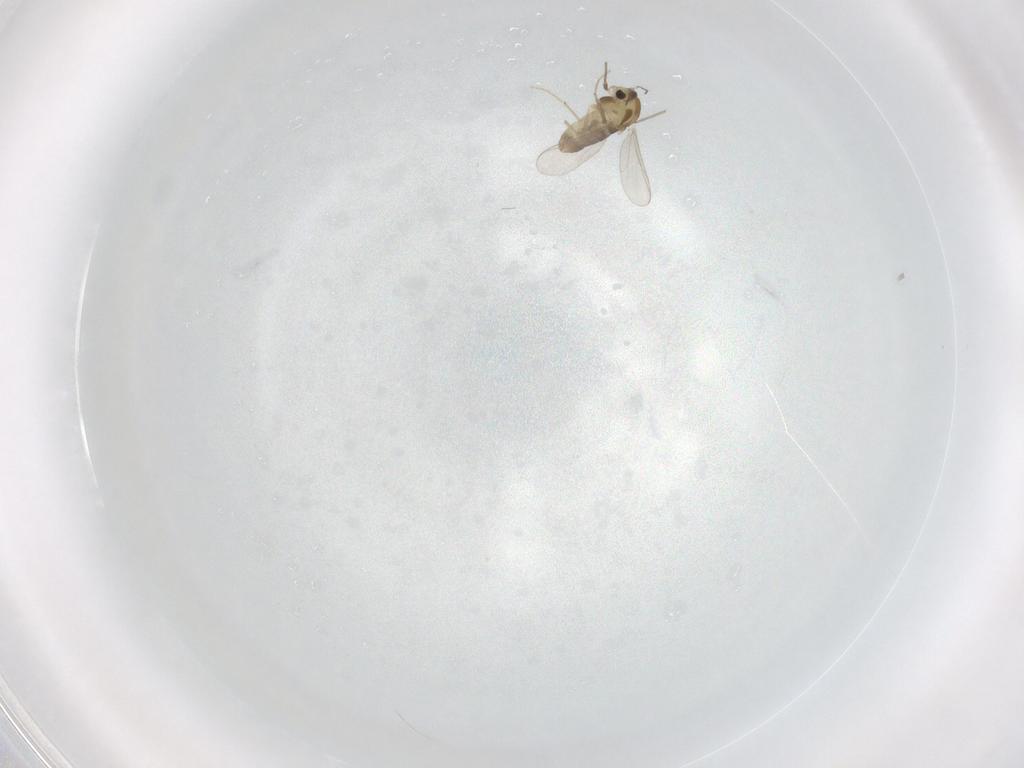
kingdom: Animalia
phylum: Arthropoda
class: Insecta
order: Diptera
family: Chironomidae
